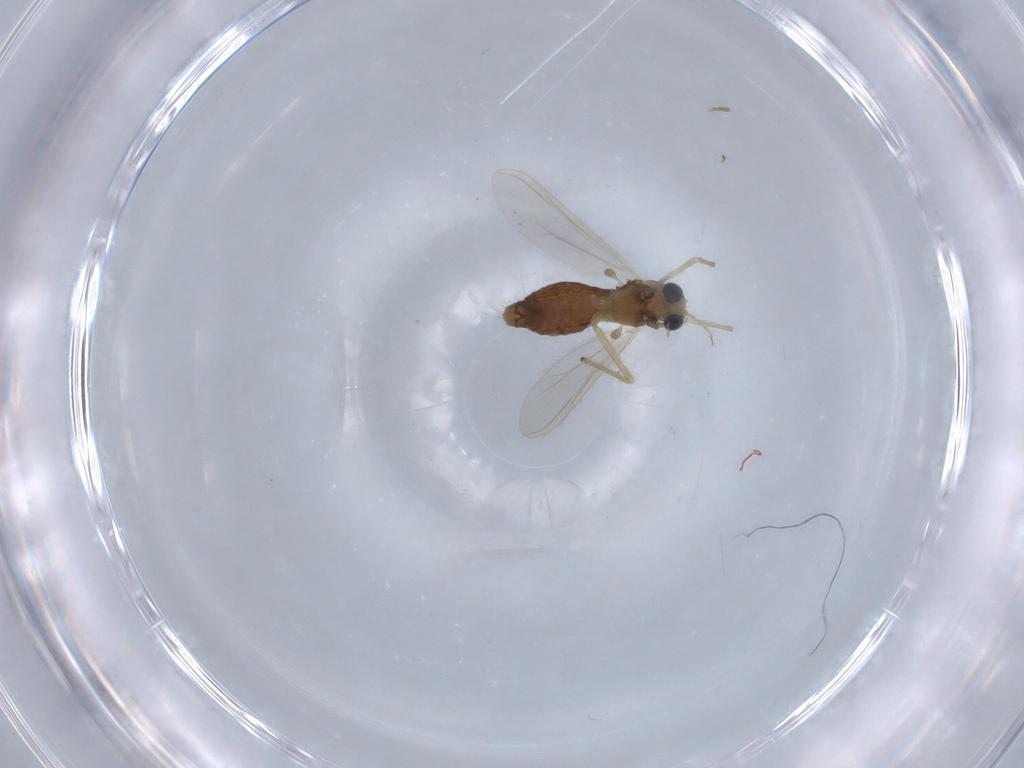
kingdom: Animalia
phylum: Arthropoda
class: Insecta
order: Diptera
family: Chironomidae
